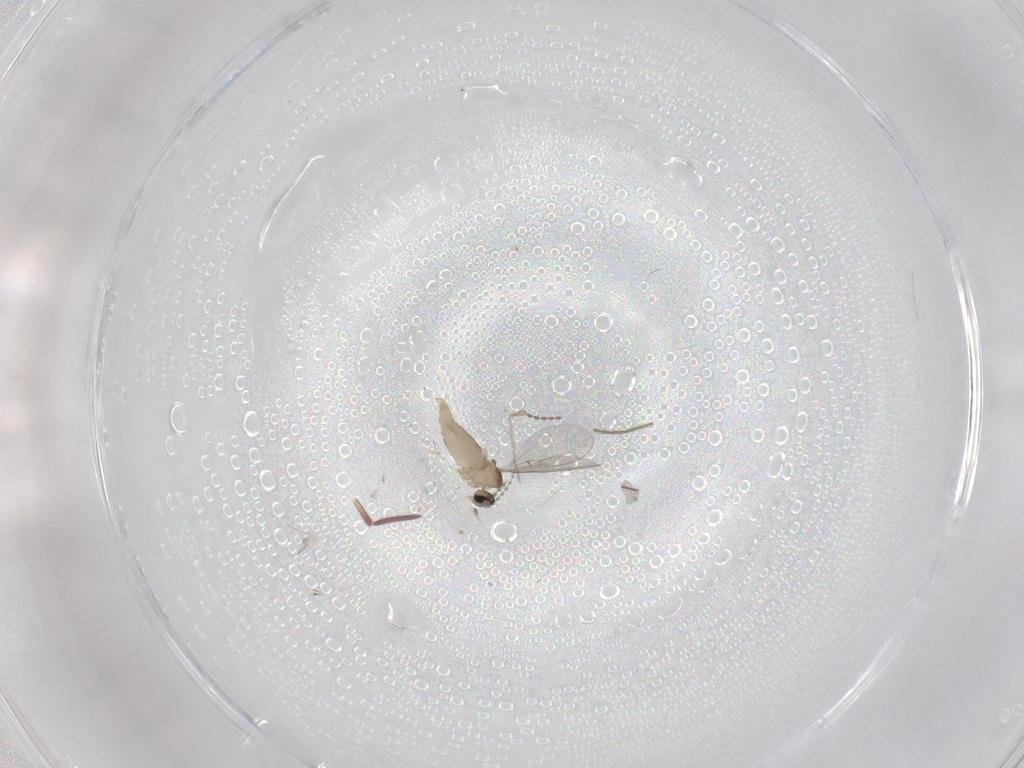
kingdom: Animalia
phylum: Arthropoda
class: Insecta
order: Diptera
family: Chironomidae
